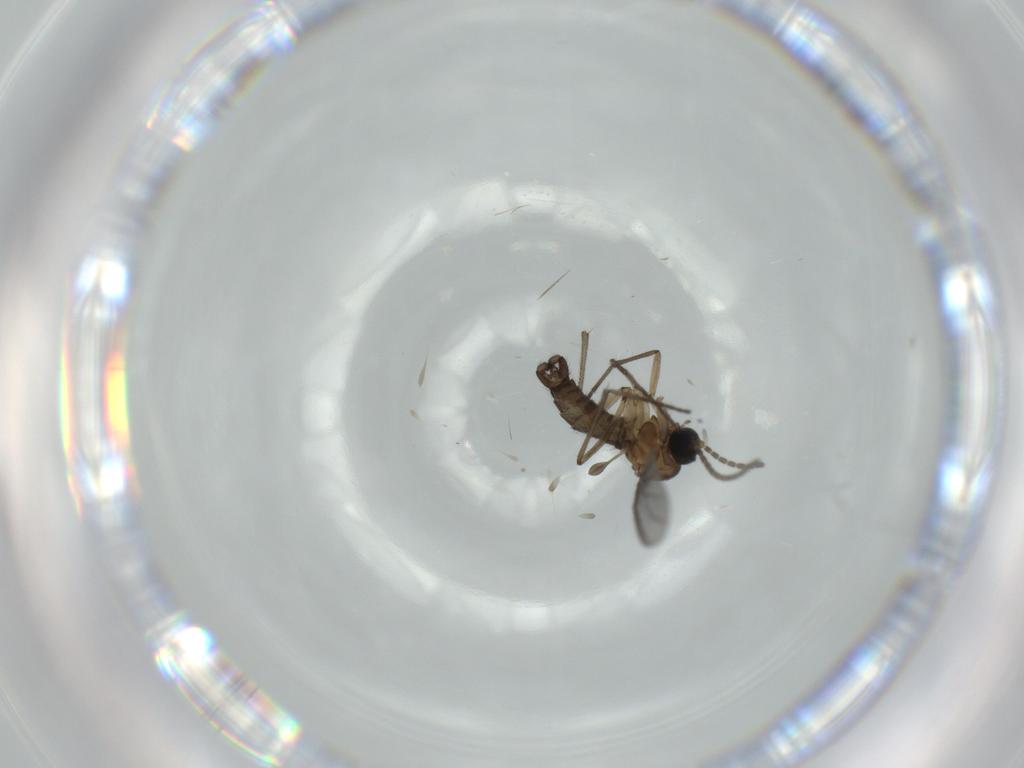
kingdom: Animalia
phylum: Arthropoda
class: Insecta
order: Diptera
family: Sciaridae
